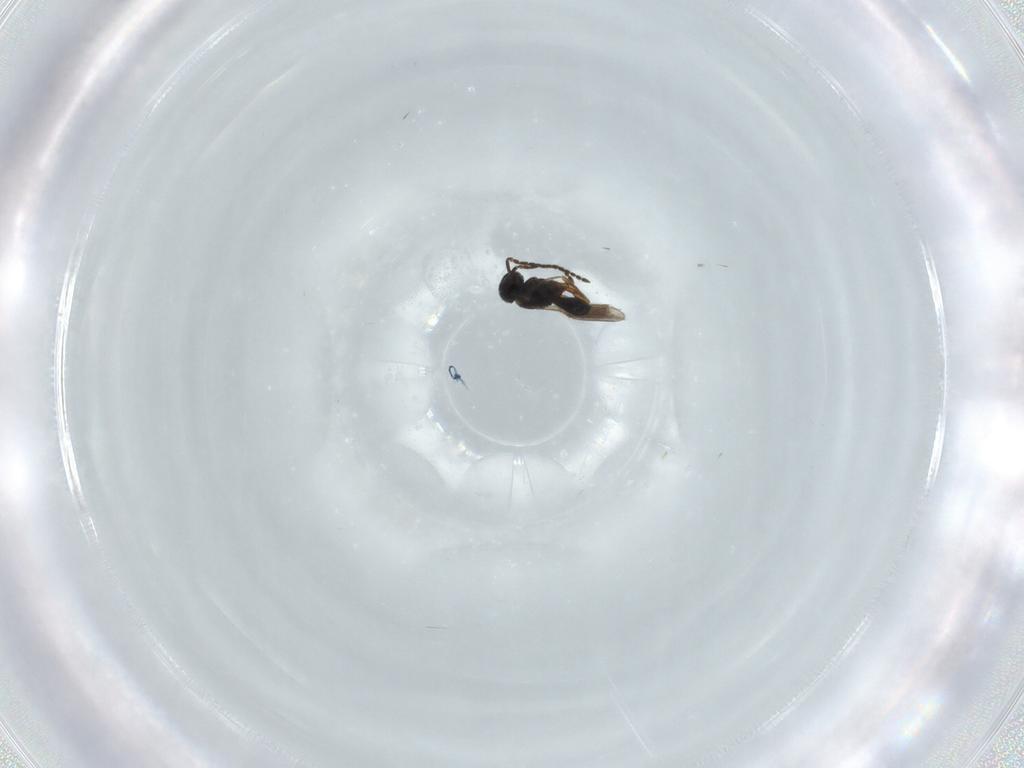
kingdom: Animalia
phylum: Arthropoda
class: Insecta
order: Hymenoptera
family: Scelionidae
